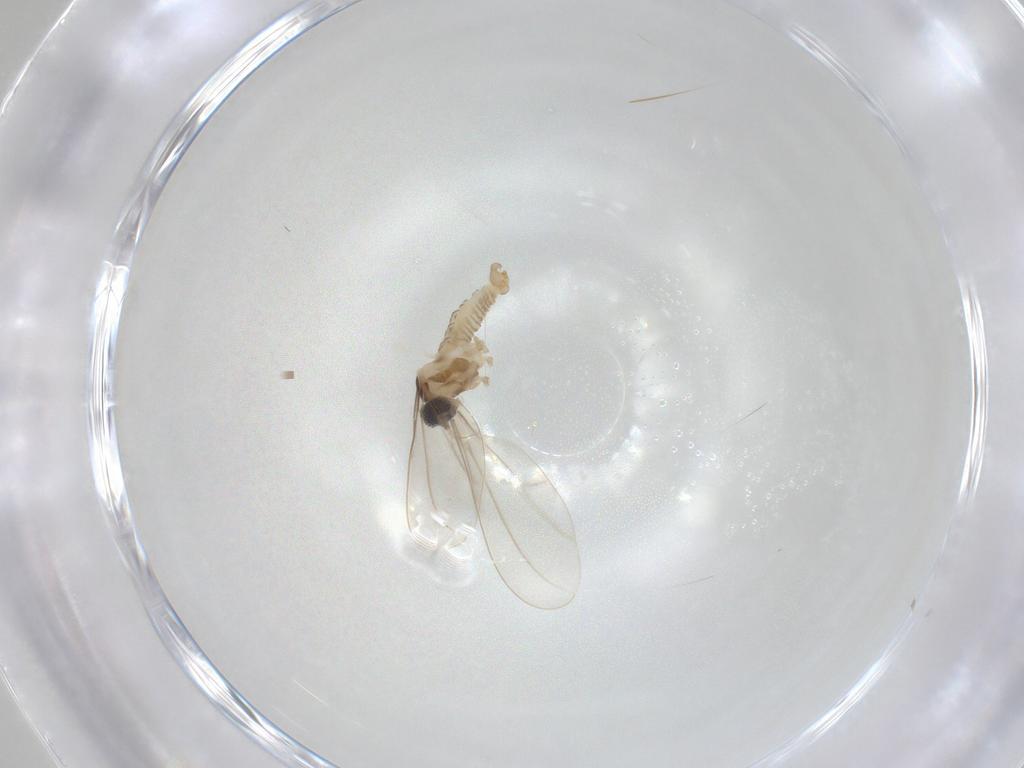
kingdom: Animalia
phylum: Arthropoda
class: Insecta
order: Diptera
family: Cecidomyiidae
